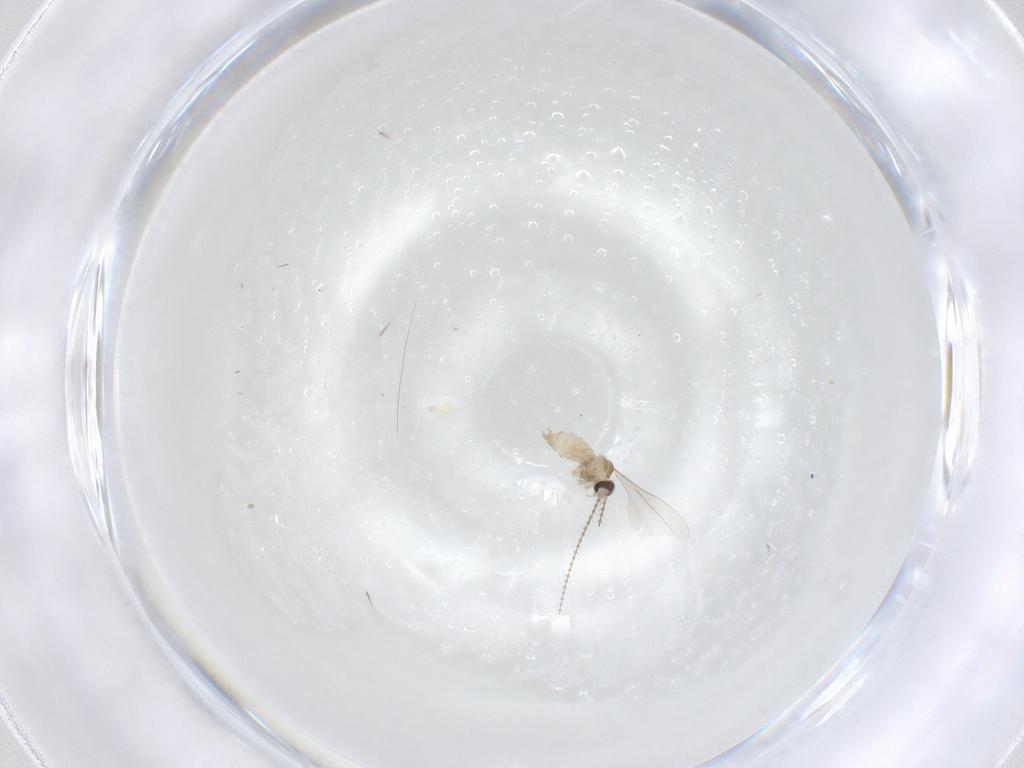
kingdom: Animalia
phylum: Arthropoda
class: Insecta
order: Diptera
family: Cecidomyiidae
